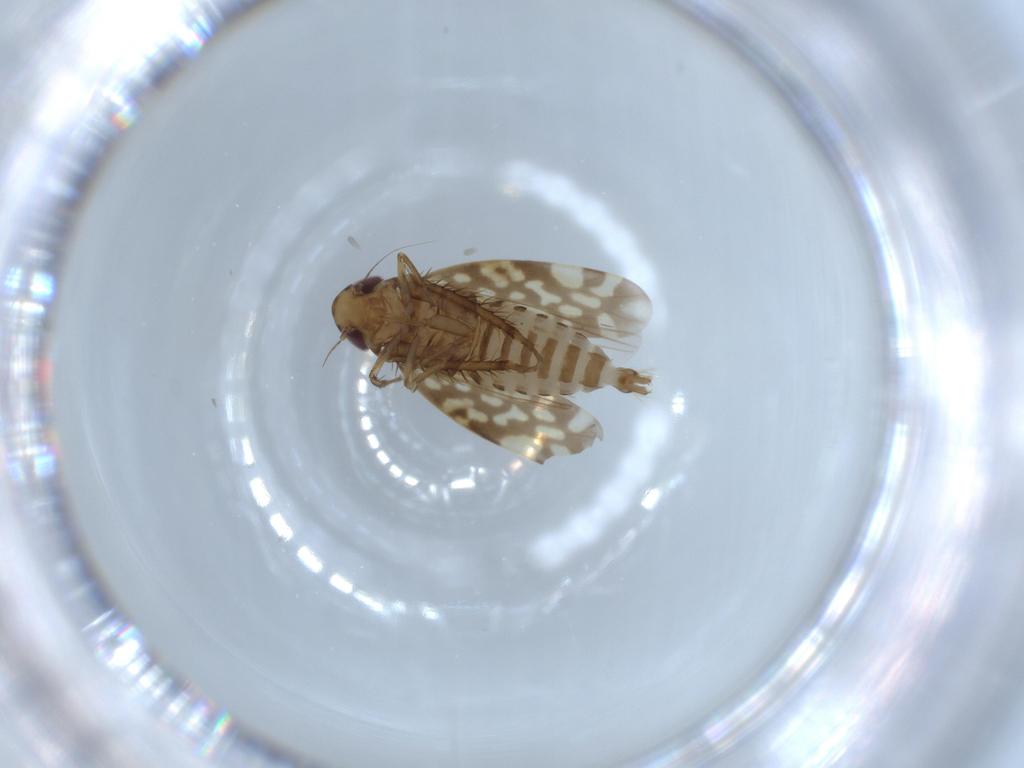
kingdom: Animalia
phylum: Arthropoda
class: Insecta
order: Hemiptera
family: Cicadellidae
